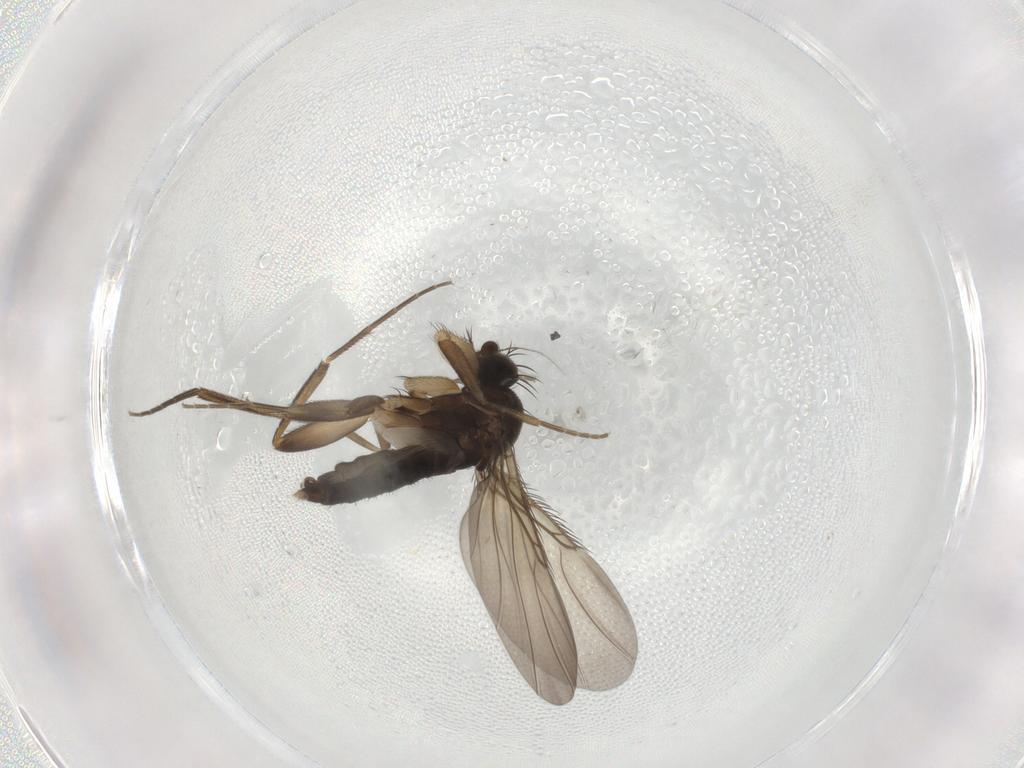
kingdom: Animalia
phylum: Arthropoda
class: Insecta
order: Diptera
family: Phoridae
